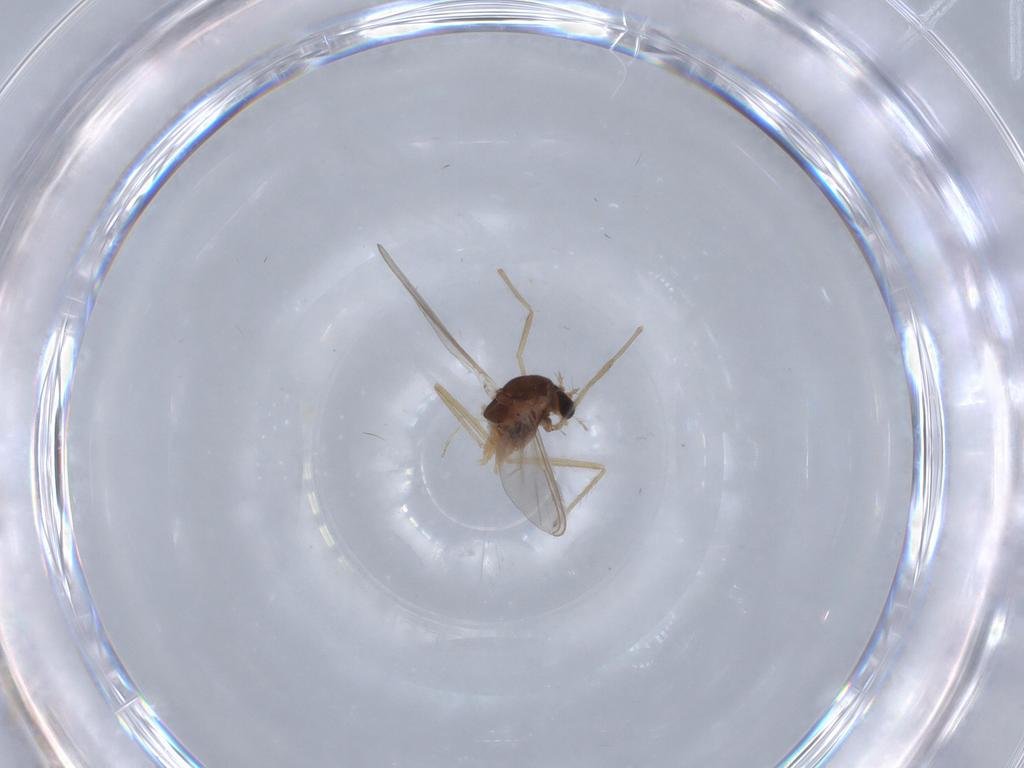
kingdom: Animalia
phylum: Arthropoda
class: Insecta
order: Diptera
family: Chironomidae
